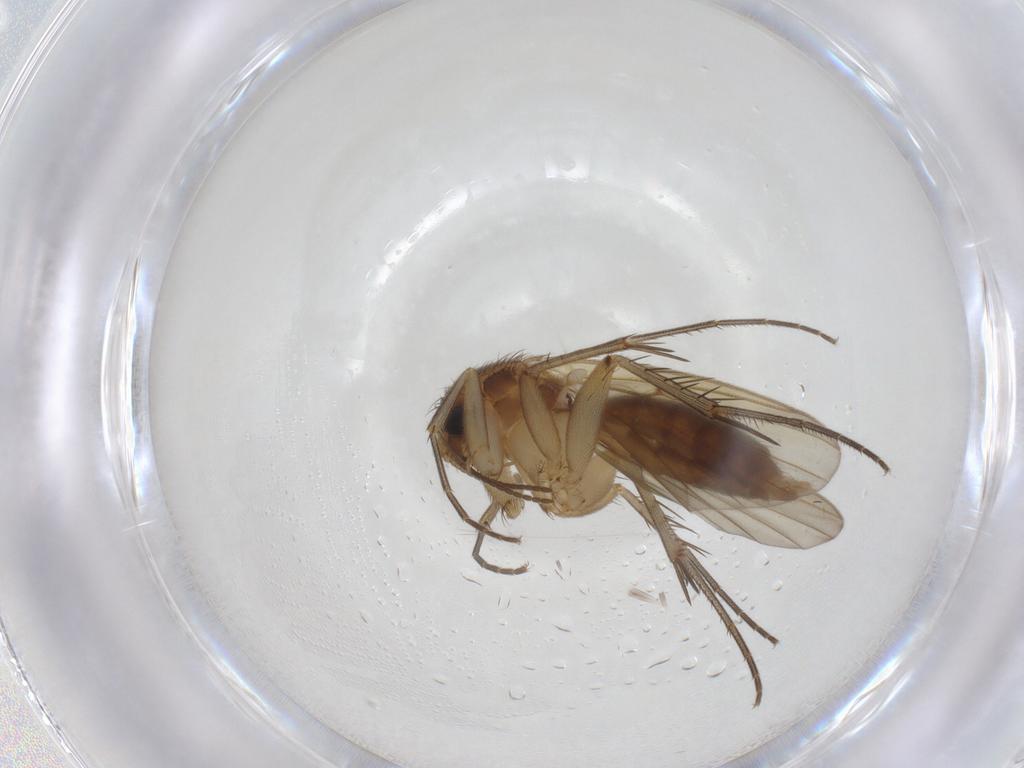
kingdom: Animalia
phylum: Arthropoda
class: Insecta
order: Diptera
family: Mycetophilidae
